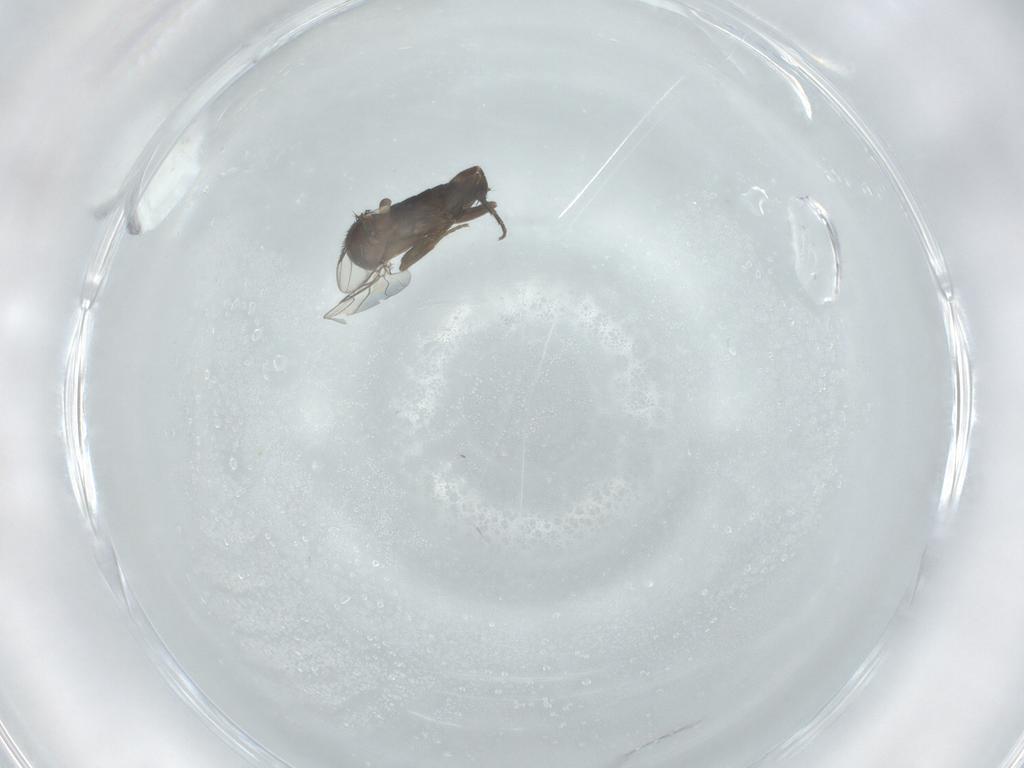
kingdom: Animalia
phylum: Arthropoda
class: Insecta
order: Diptera
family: Phoridae
